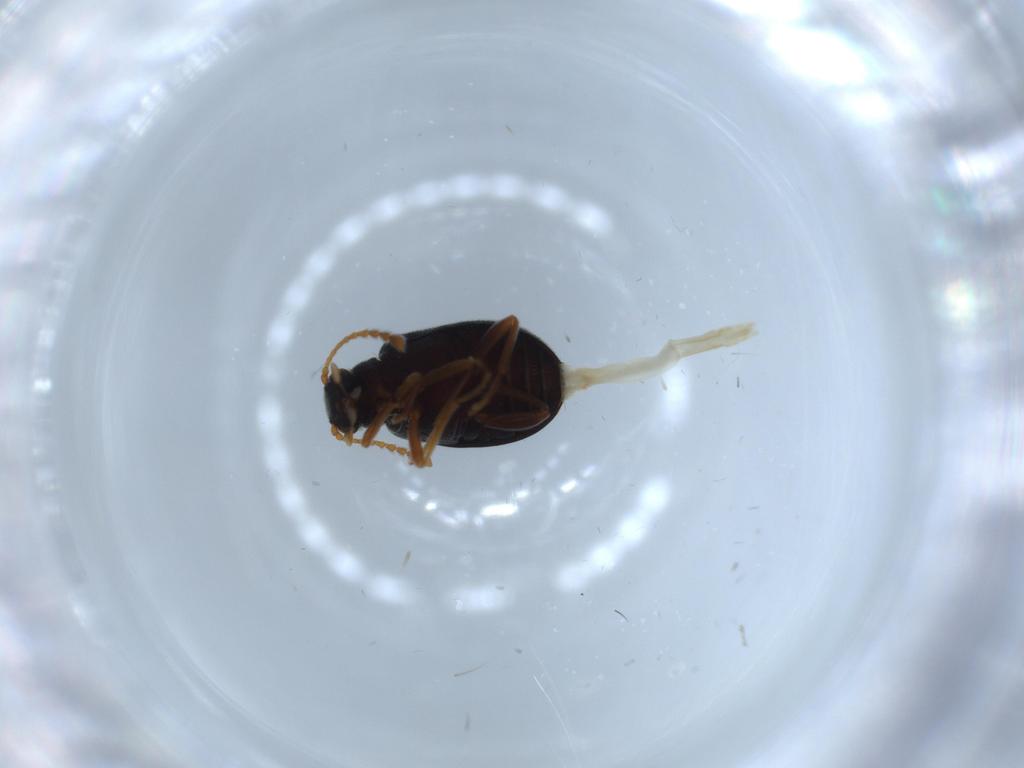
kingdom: Animalia
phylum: Arthropoda
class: Insecta
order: Coleoptera
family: Aderidae
